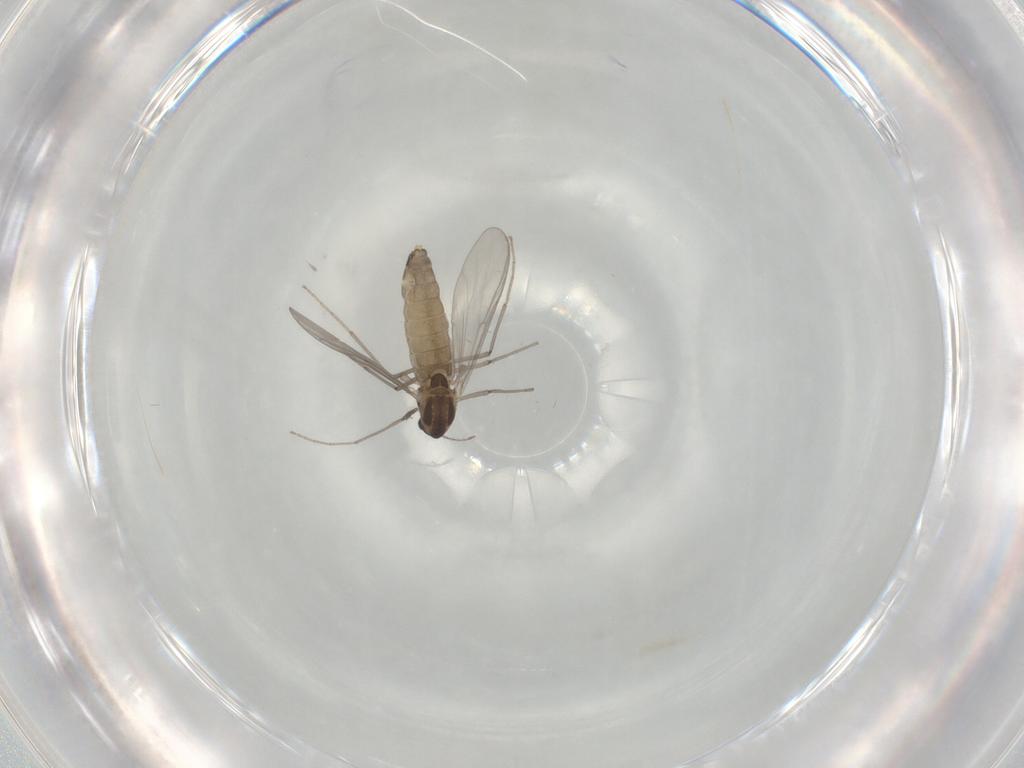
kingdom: Animalia
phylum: Arthropoda
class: Insecta
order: Diptera
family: Chironomidae
